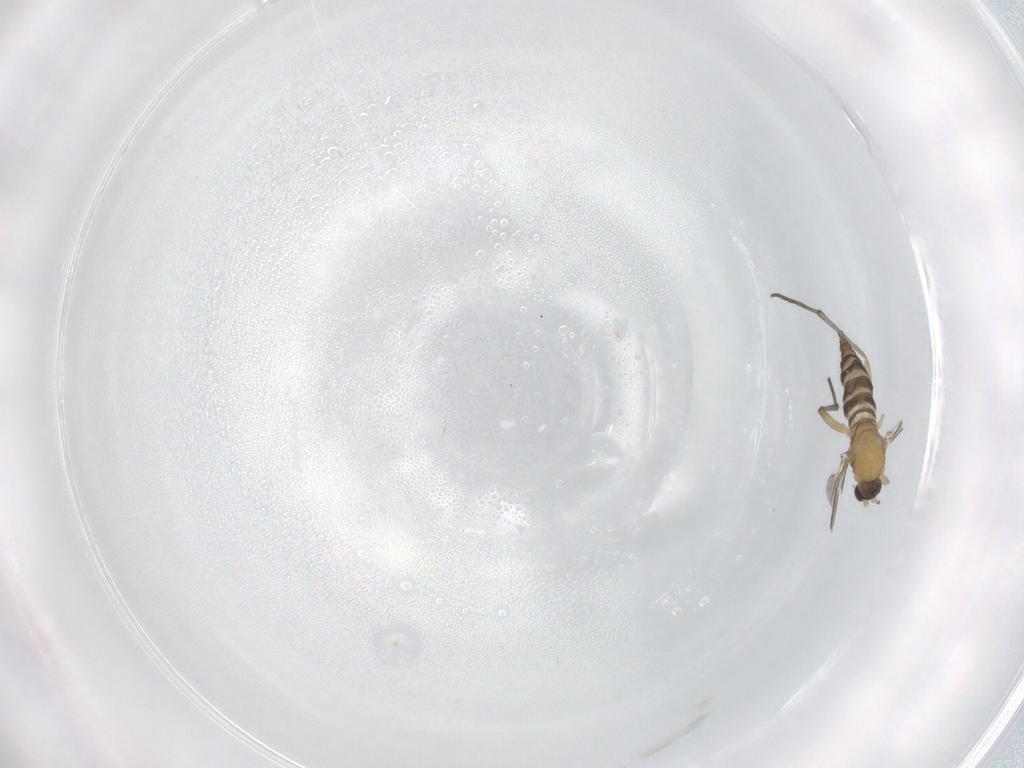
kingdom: Animalia
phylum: Arthropoda
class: Insecta
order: Diptera
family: Sciaridae
